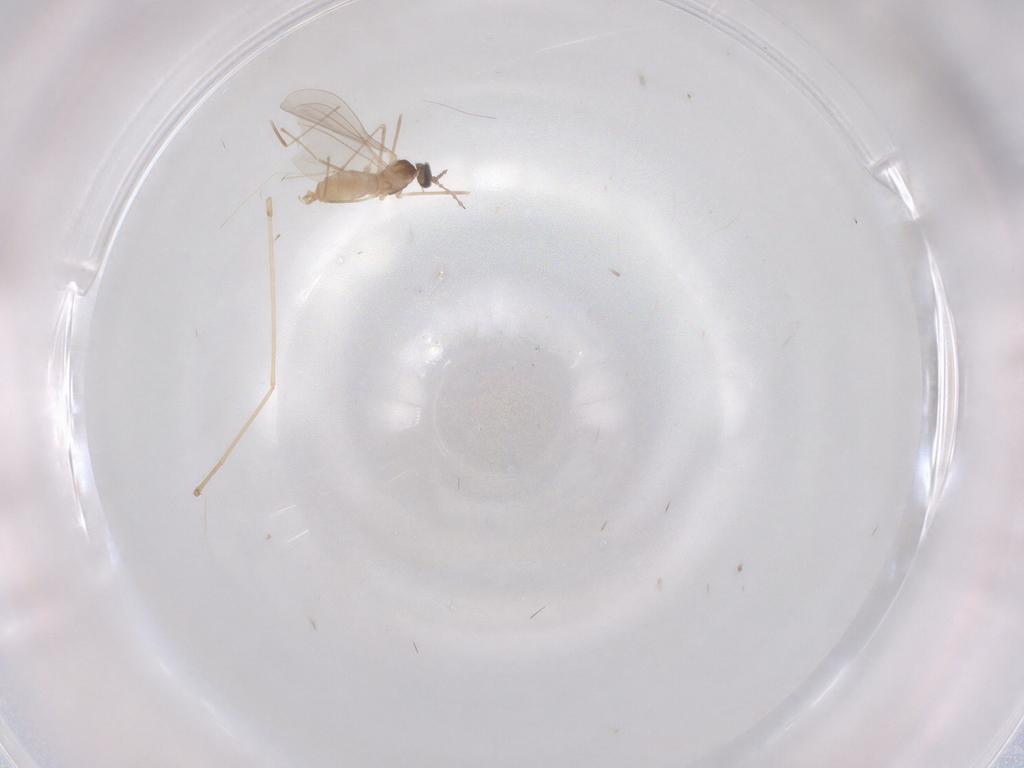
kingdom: Animalia
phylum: Arthropoda
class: Insecta
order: Diptera
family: Cecidomyiidae
